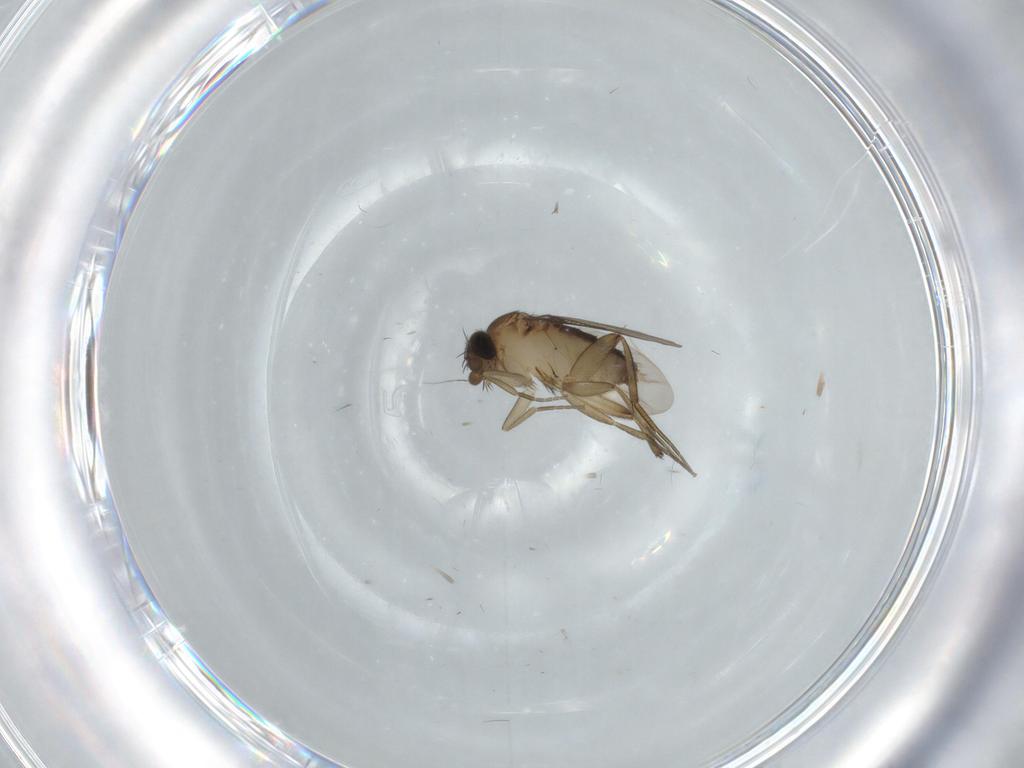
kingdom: Animalia
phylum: Arthropoda
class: Insecta
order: Diptera
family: Phoridae
